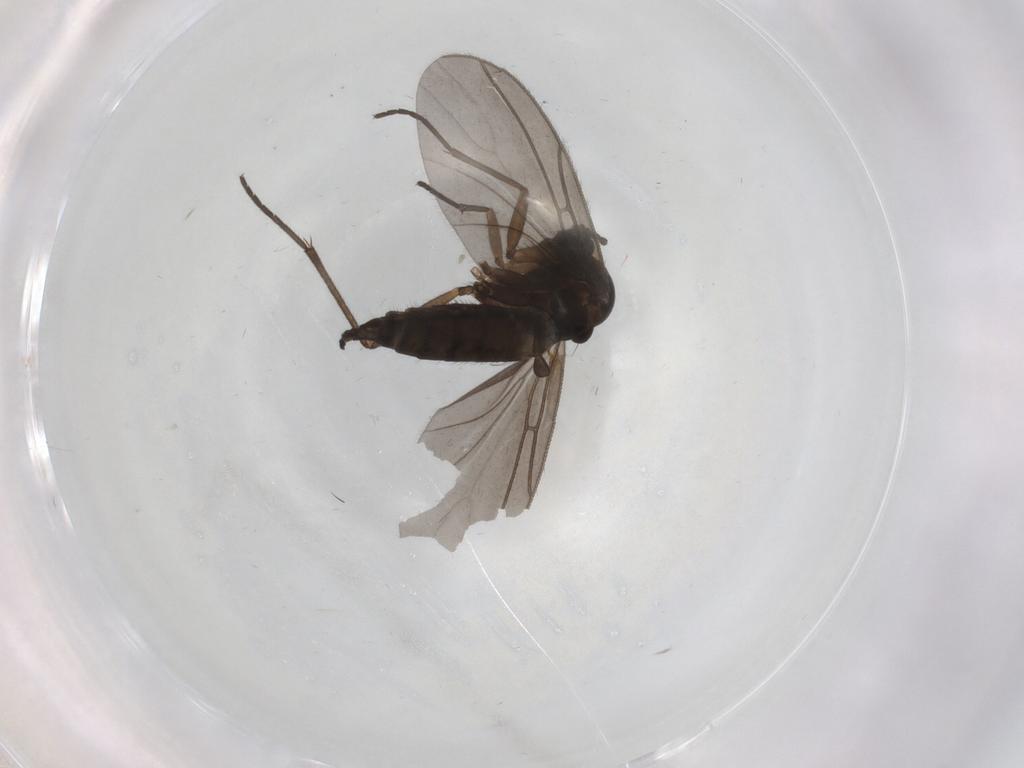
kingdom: Animalia
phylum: Arthropoda
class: Insecta
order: Diptera
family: Sciaridae
